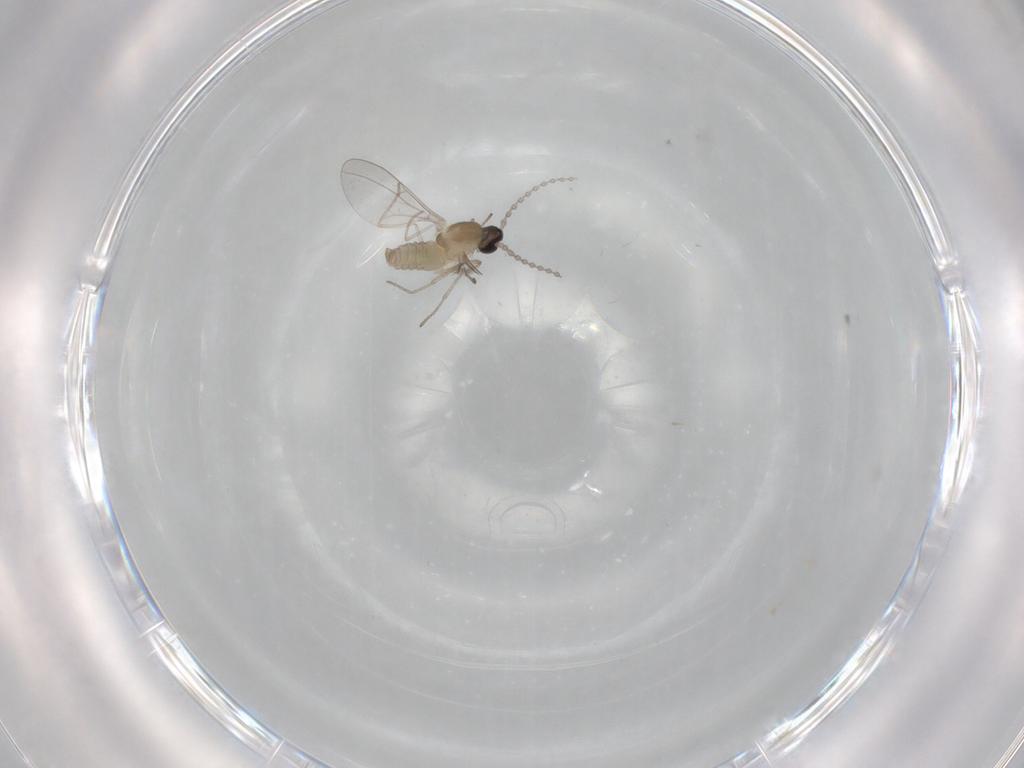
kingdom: Animalia
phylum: Arthropoda
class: Insecta
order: Diptera
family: Cecidomyiidae
